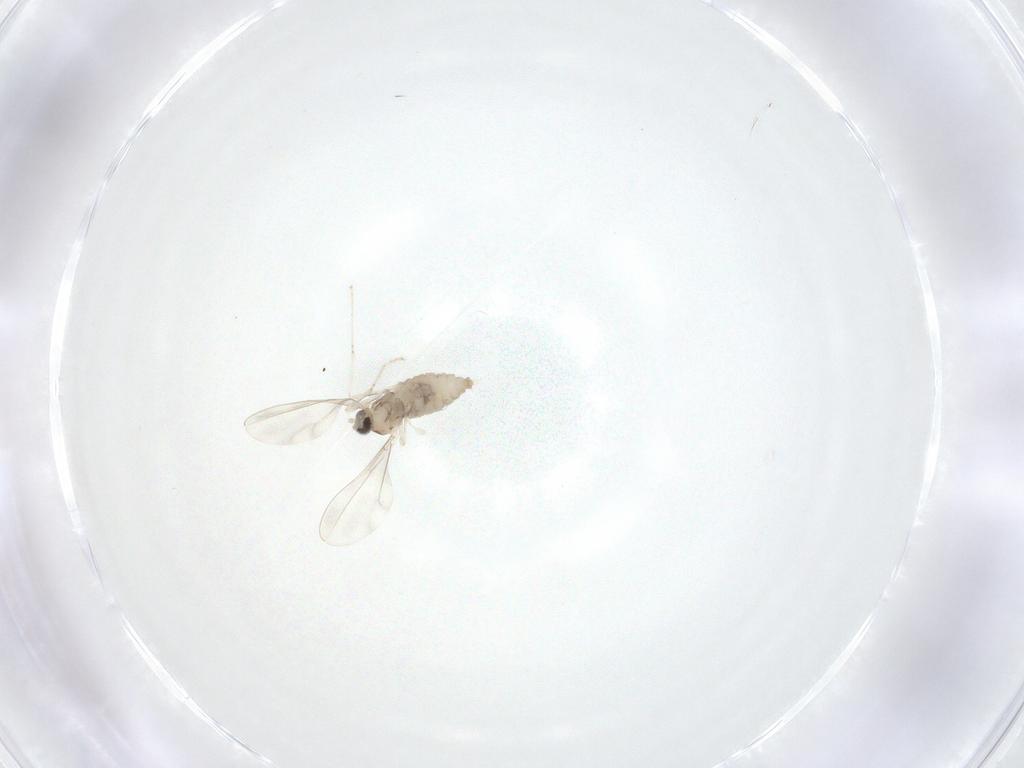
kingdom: Animalia
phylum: Arthropoda
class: Insecta
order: Diptera
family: Cecidomyiidae
